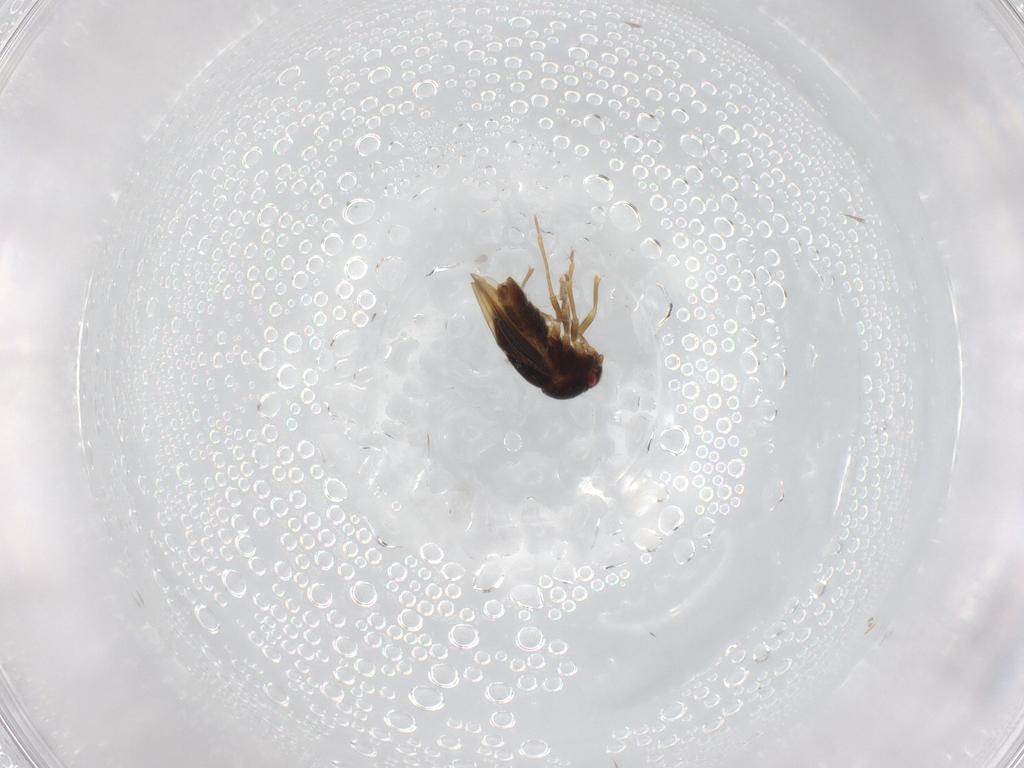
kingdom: Animalia
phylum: Arthropoda
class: Insecta
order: Hemiptera
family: Schizopteridae
